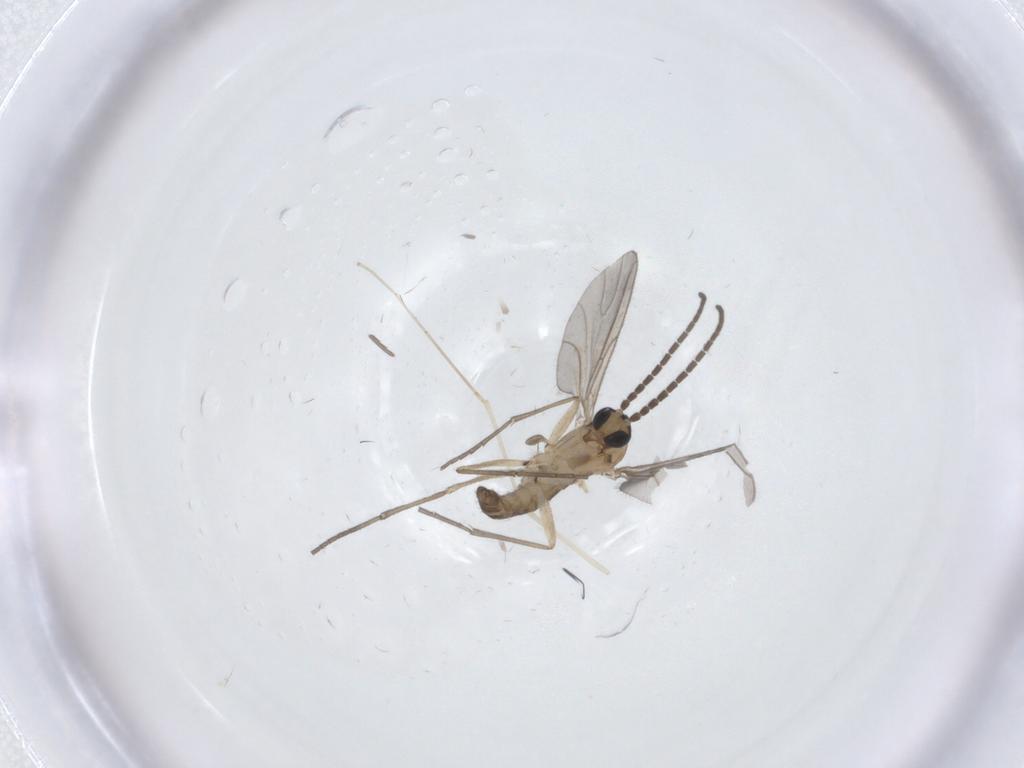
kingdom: Animalia
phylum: Arthropoda
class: Insecta
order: Diptera
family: Sciaridae
